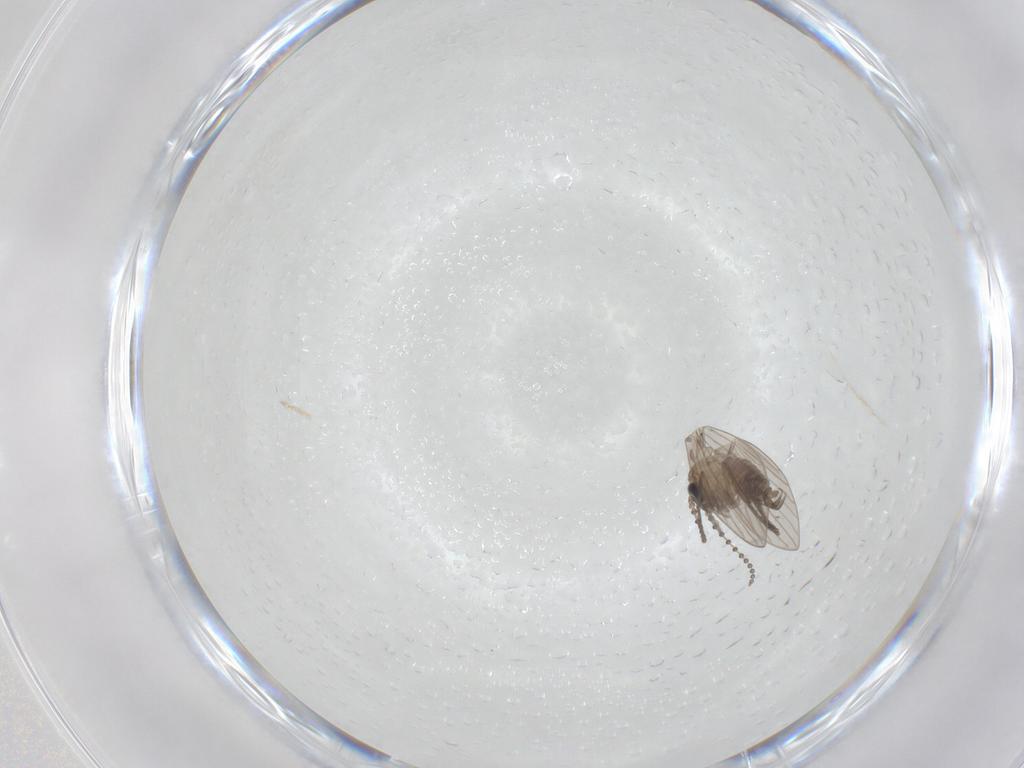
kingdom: Animalia
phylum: Arthropoda
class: Insecta
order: Diptera
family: Psychodidae
